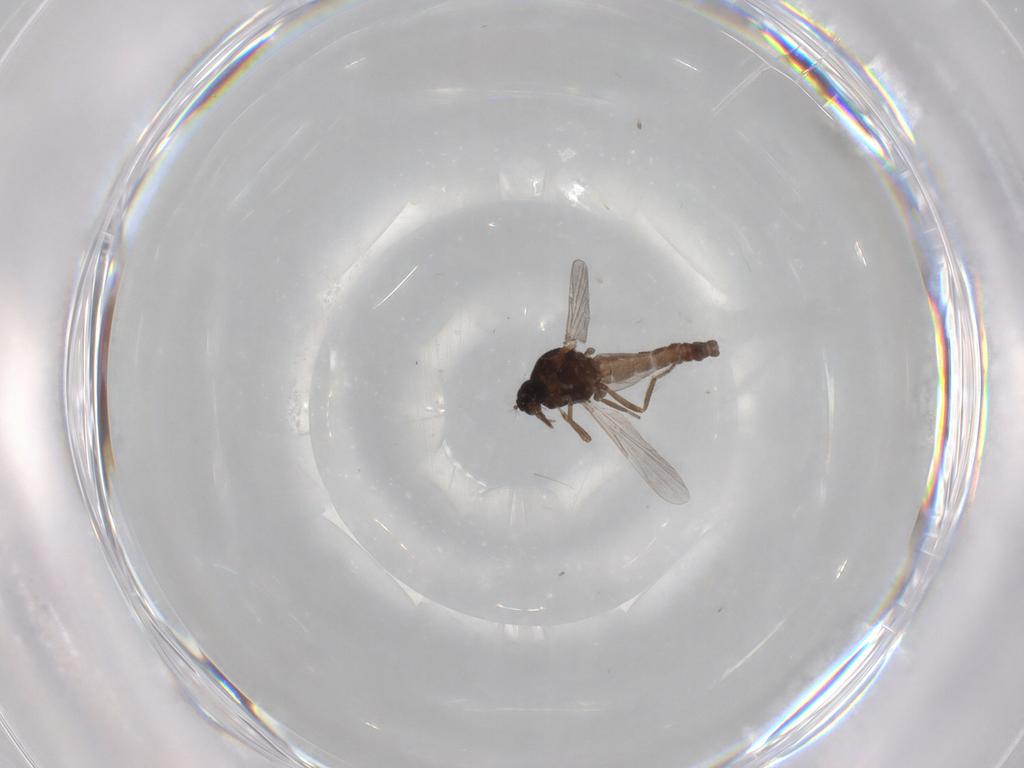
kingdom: Animalia
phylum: Arthropoda
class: Insecta
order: Diptera
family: Ceratopogonidae
